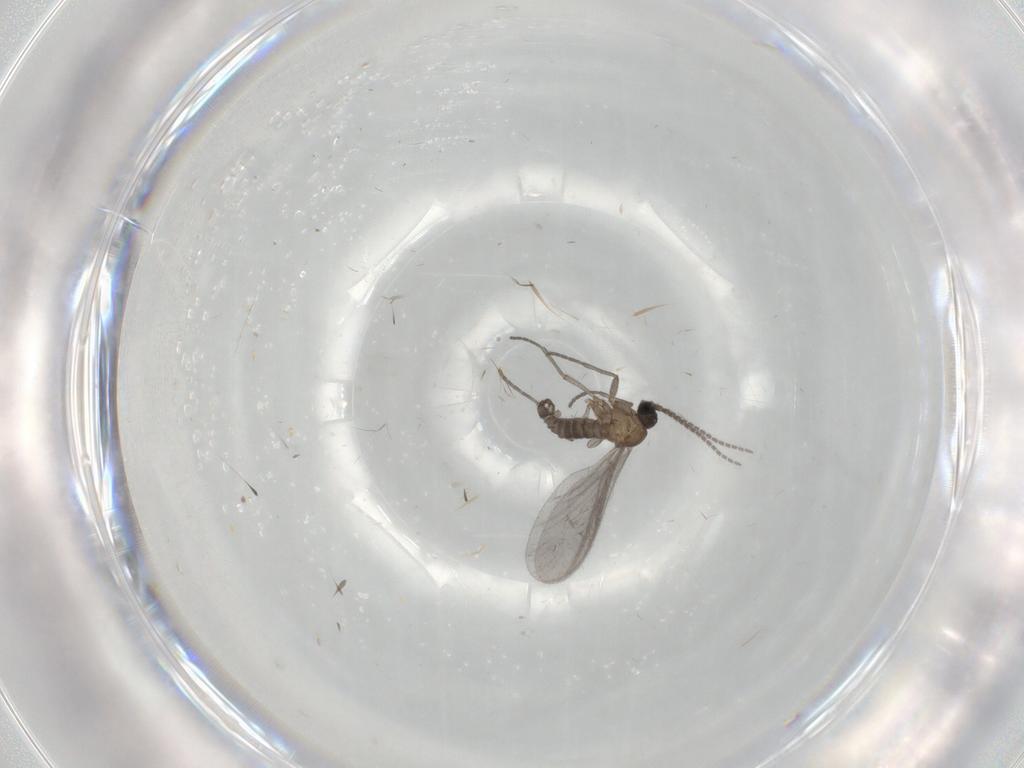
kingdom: Animalia
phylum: Arthropoda
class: Insecta
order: Diptera
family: Sciaridae
